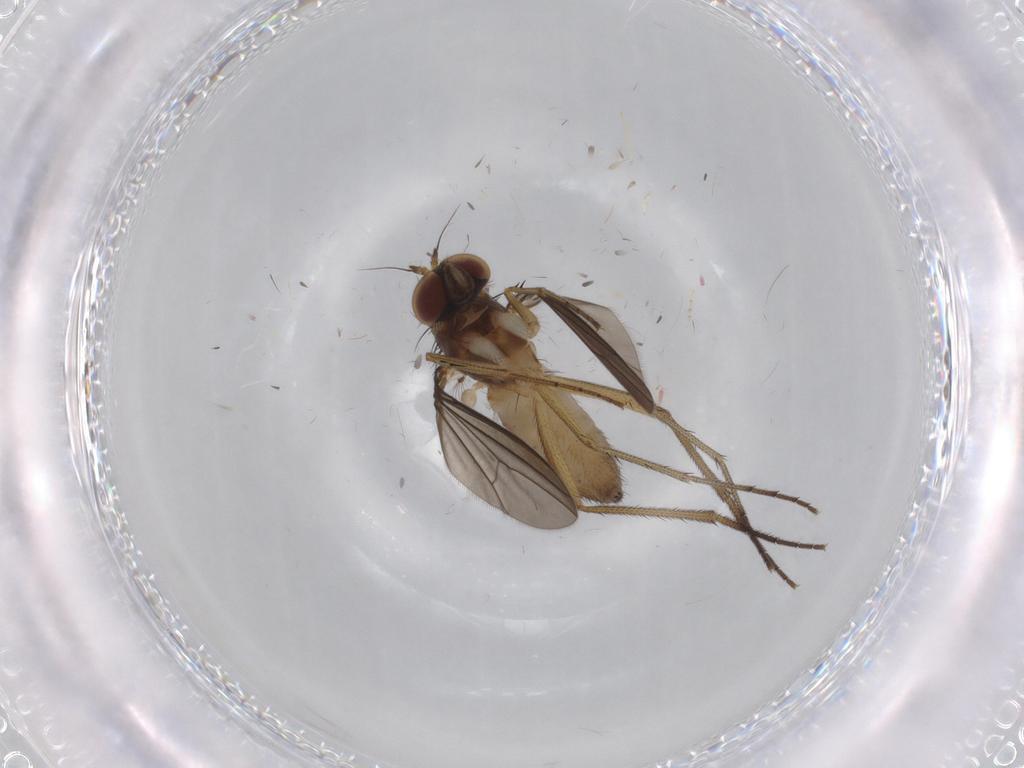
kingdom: Animalia
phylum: Arthropoda
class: Insecta
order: Diptera
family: Dolichopodidae
